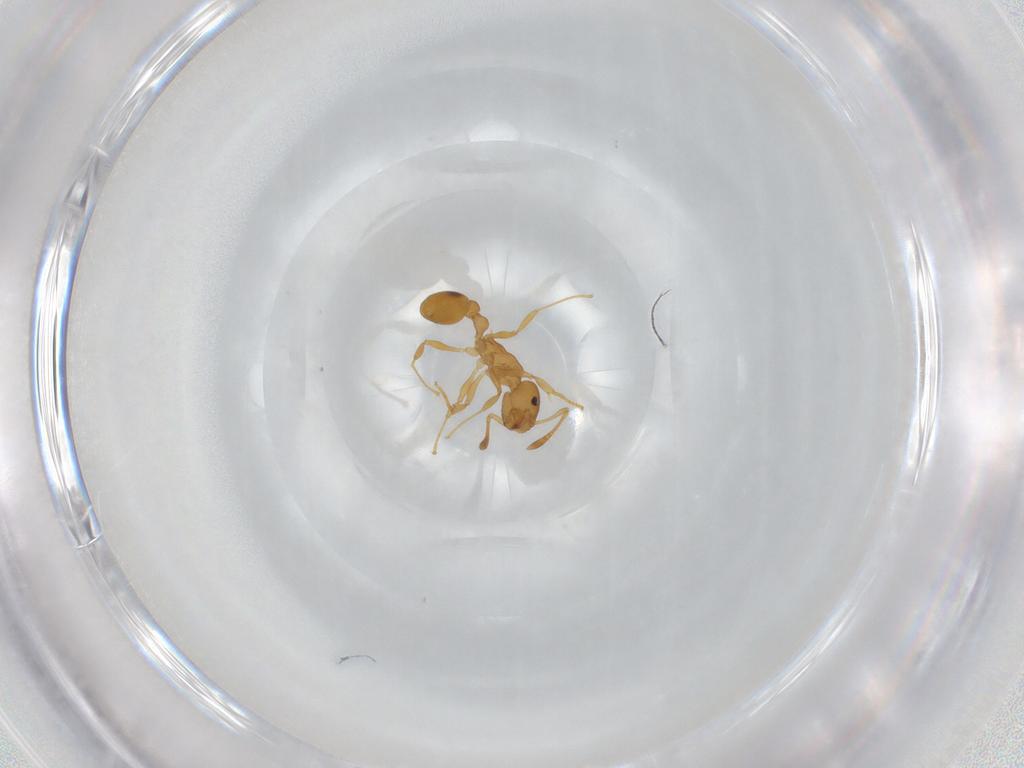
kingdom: Animalia
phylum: Arthropoda
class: Insecta
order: Hymenoptera
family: Formicidae
